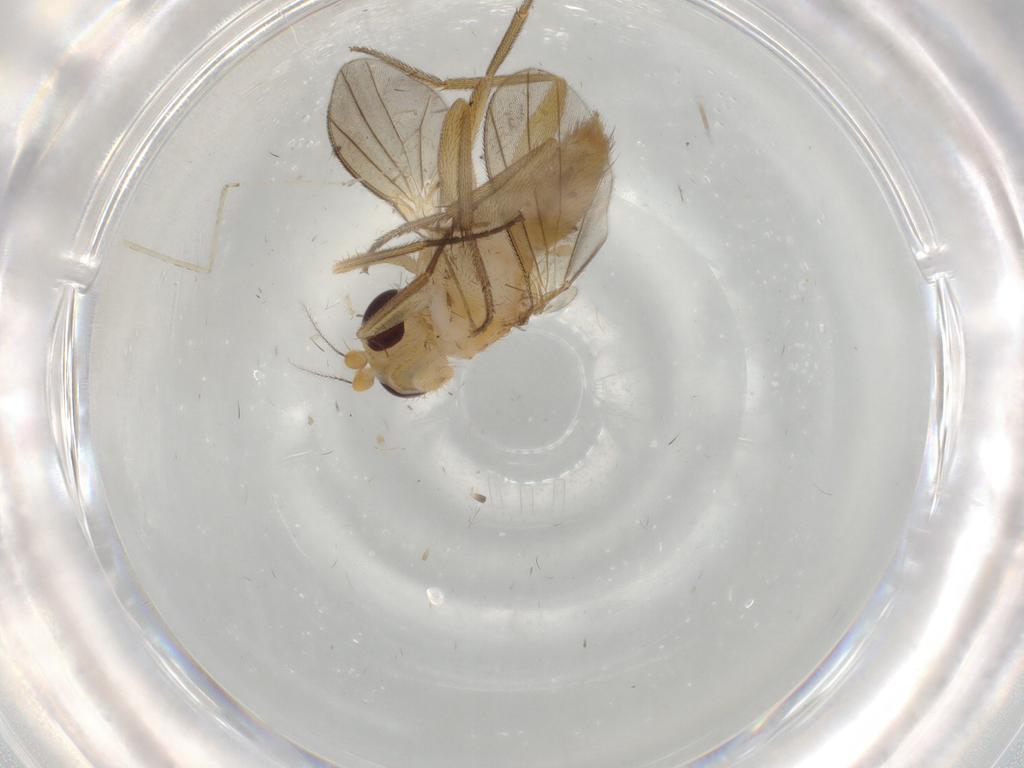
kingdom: Animalia
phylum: Arthropoda
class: Insecta
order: Diptera
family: Clusiidae
